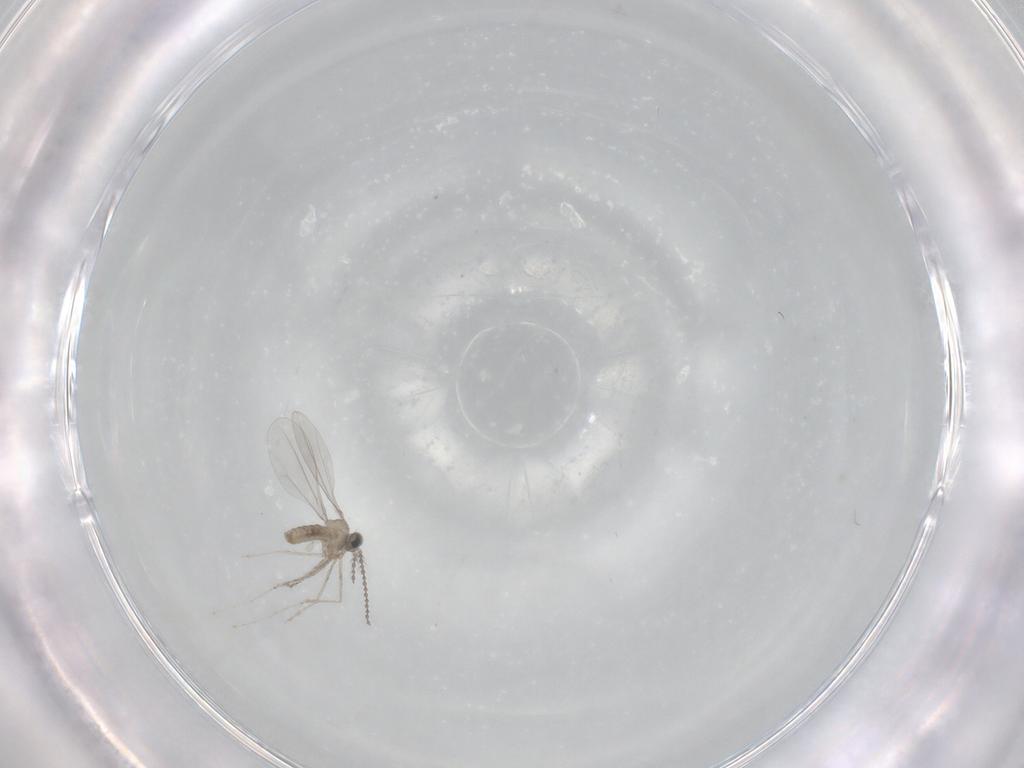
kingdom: Animalia
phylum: Arthropoda
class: Insecta
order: Diptera
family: Cecidomyiidae
